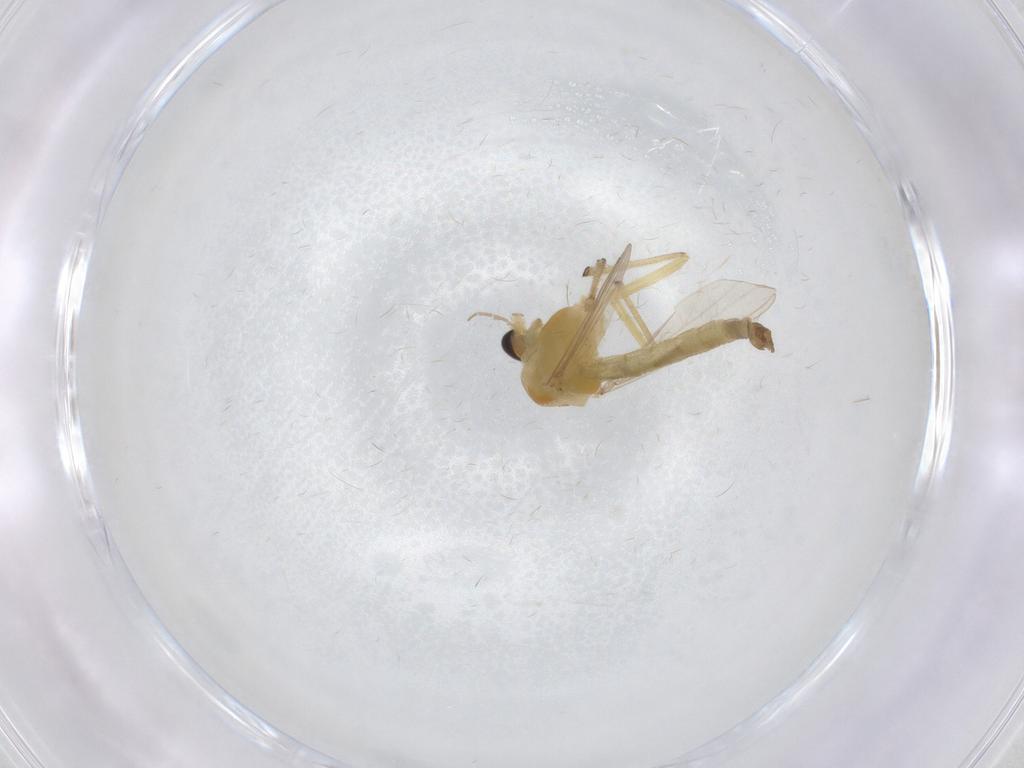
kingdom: Animalia
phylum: Arthropoda
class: Insecta
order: Diptera
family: Chironomidae
